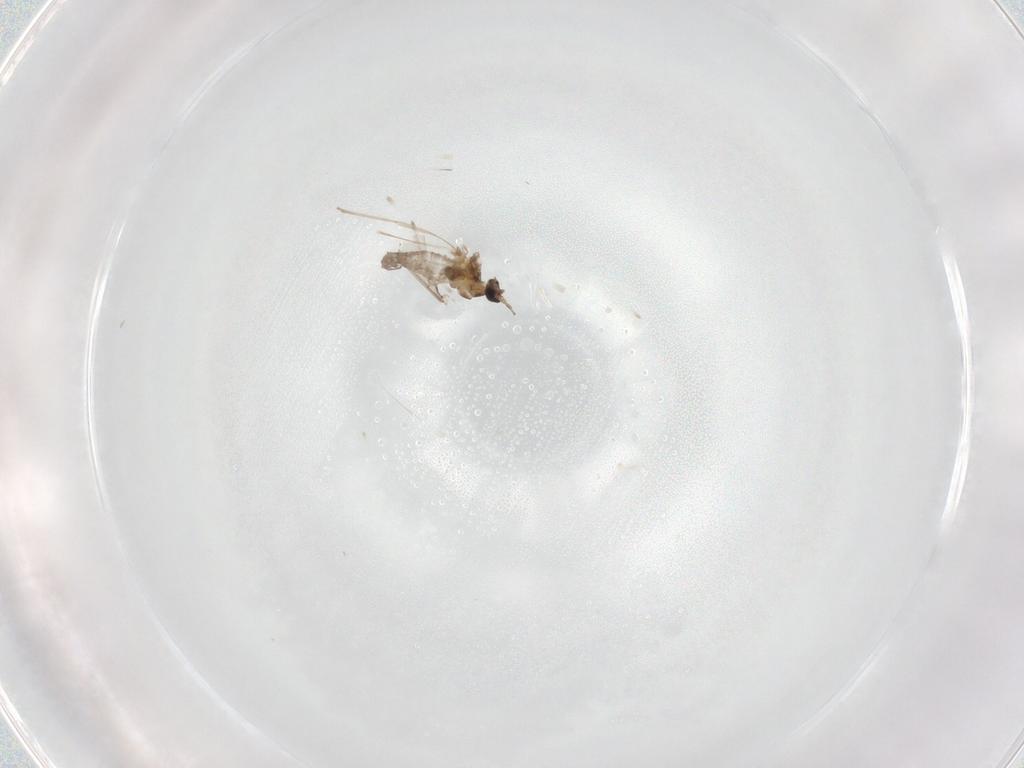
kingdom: Animalia
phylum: Arthropoda
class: Insecta
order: Diptera
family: Cecidomyiidae
